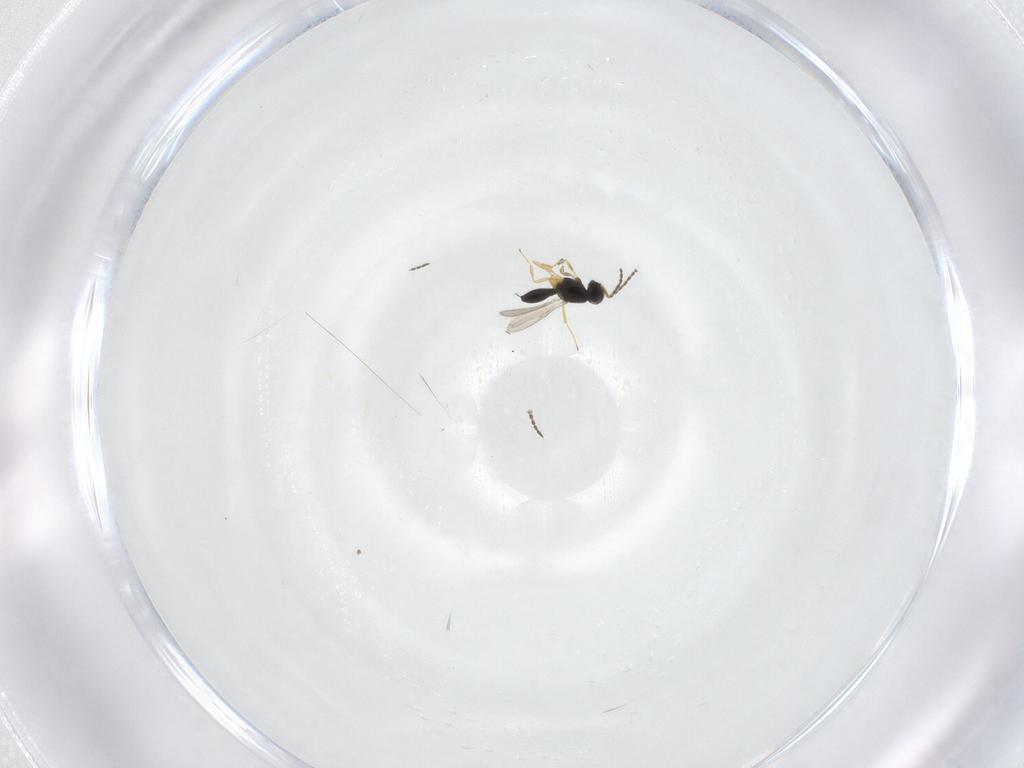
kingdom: Animalia
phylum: Arthropoda
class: Insecta
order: Hymenoptera
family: Scelionidae
